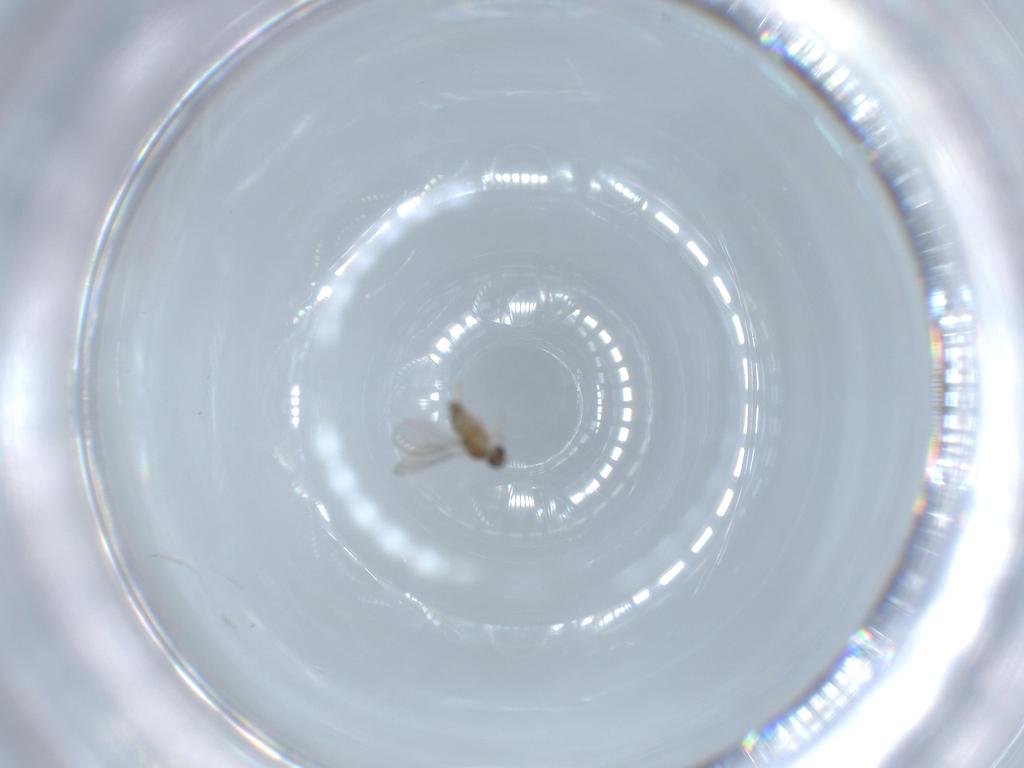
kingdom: Animalia
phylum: Arthropoda
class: Insecta
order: Diptera
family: Cecidomyiidae
